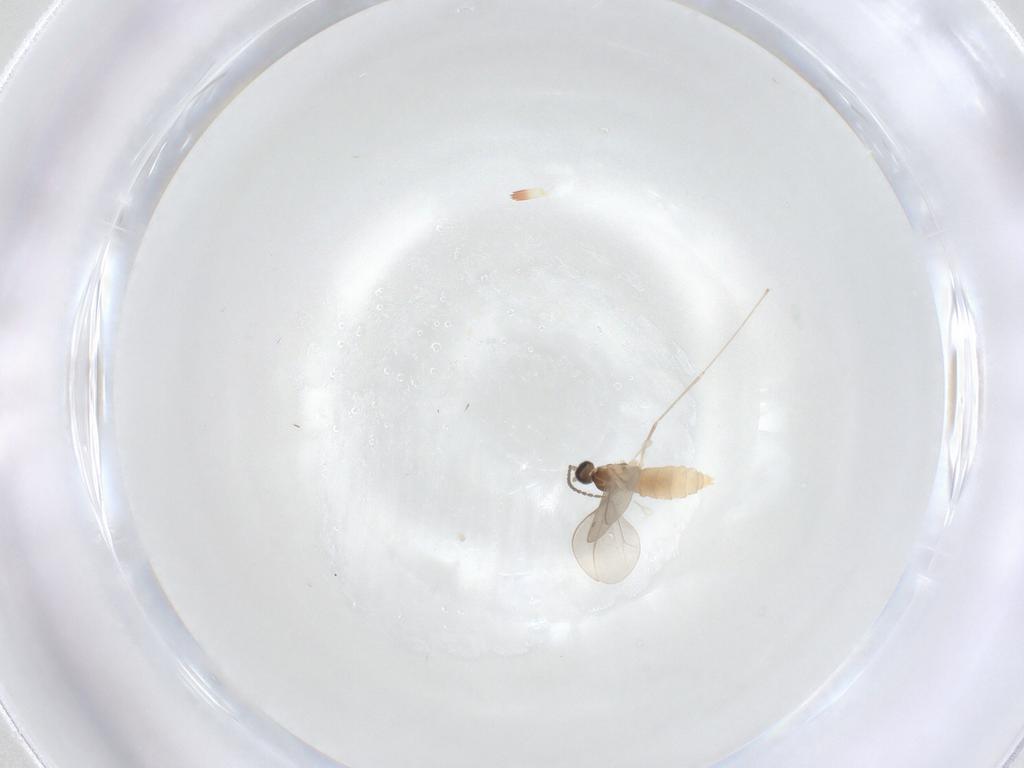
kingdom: Animalia
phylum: Arthropoda
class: Insecta
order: Diptera
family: Cecidomyiidae
